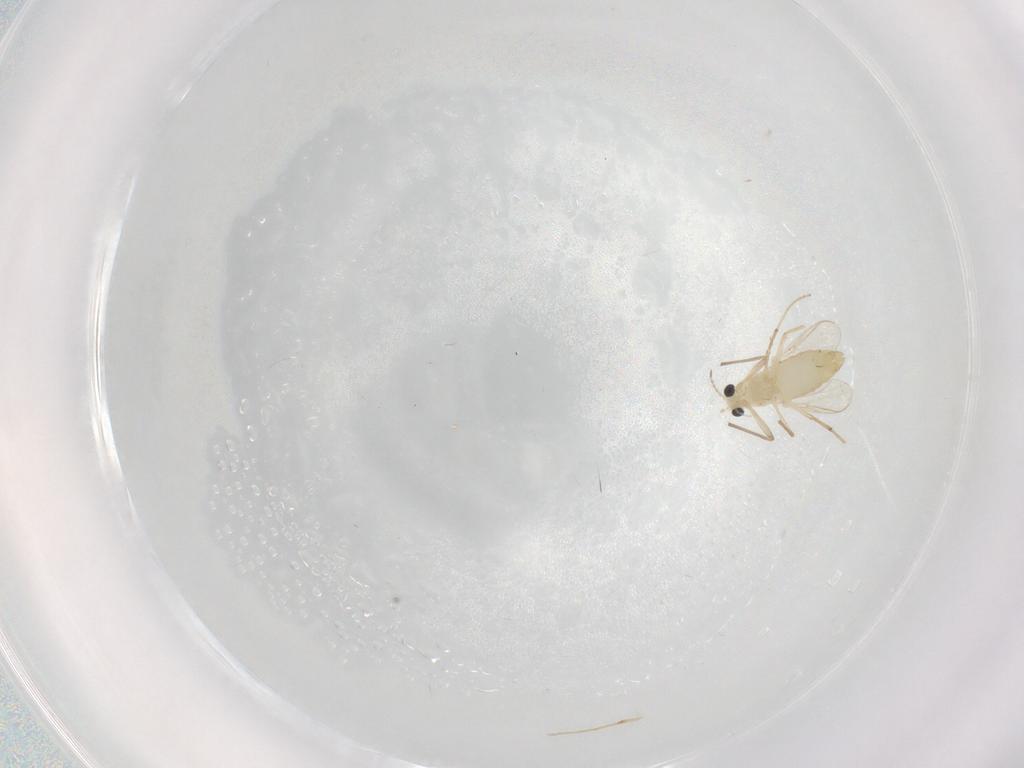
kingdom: Animalia
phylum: Arthropoda
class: Insecta
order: Diptera
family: Chironomidae
